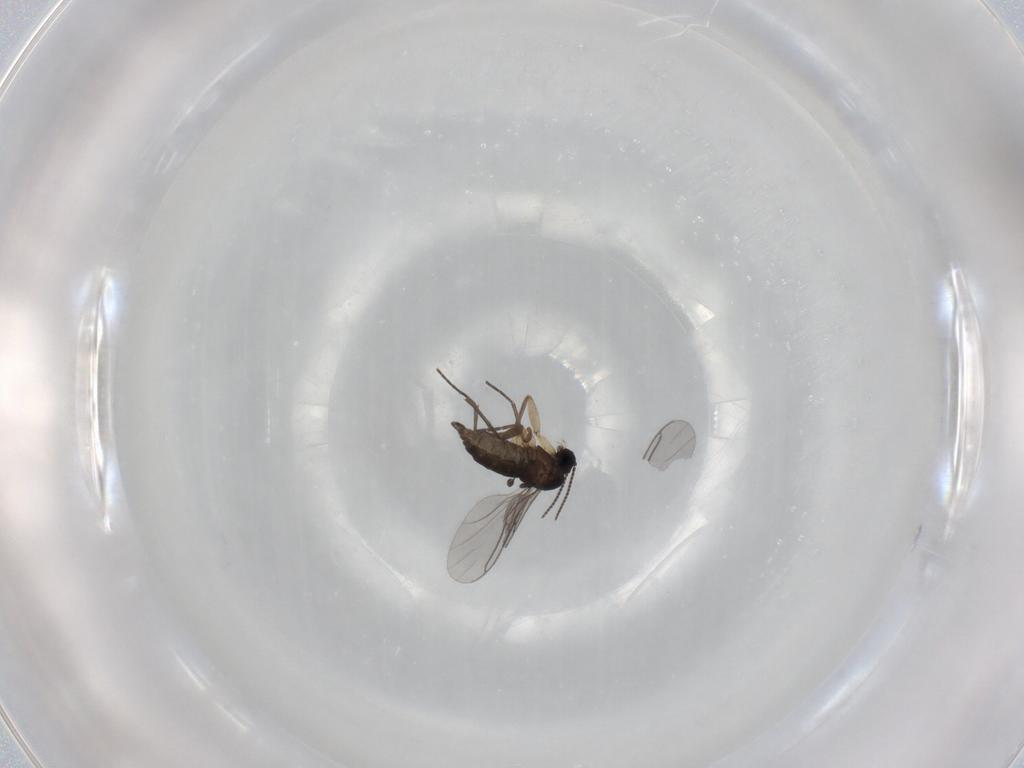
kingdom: Animalia
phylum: Arthropoda
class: Insecta
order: Diptera
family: Sciaridae
